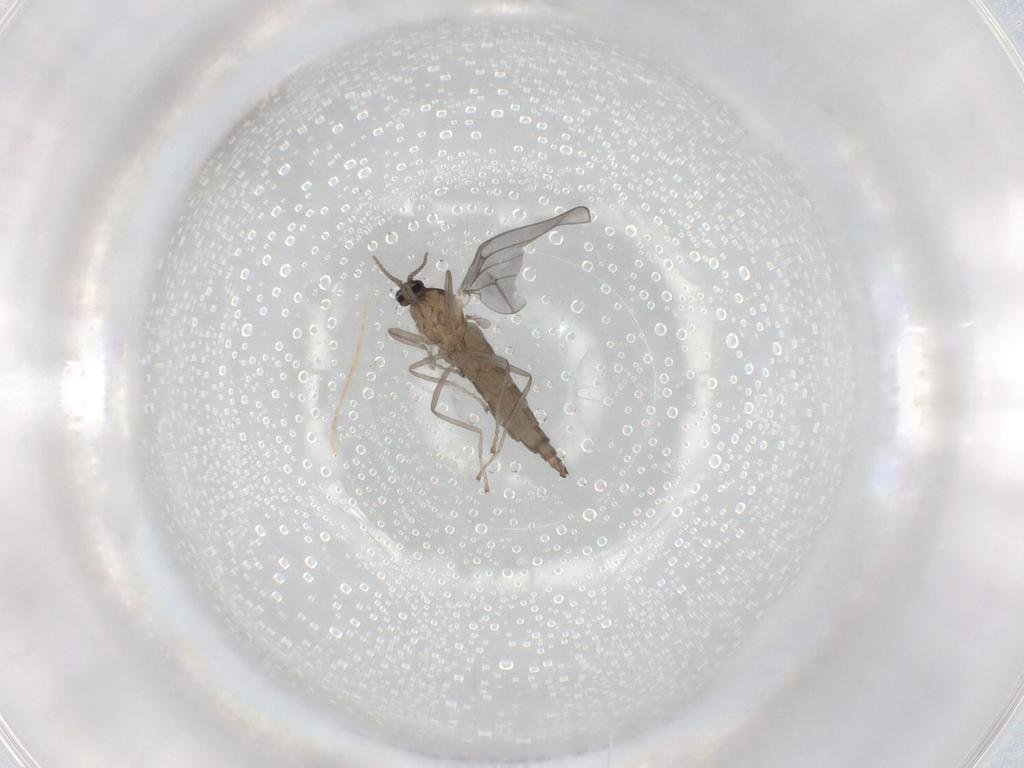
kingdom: Animalia
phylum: Arthropoda
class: Insecta
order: Diptera
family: Cecidomyiidae
